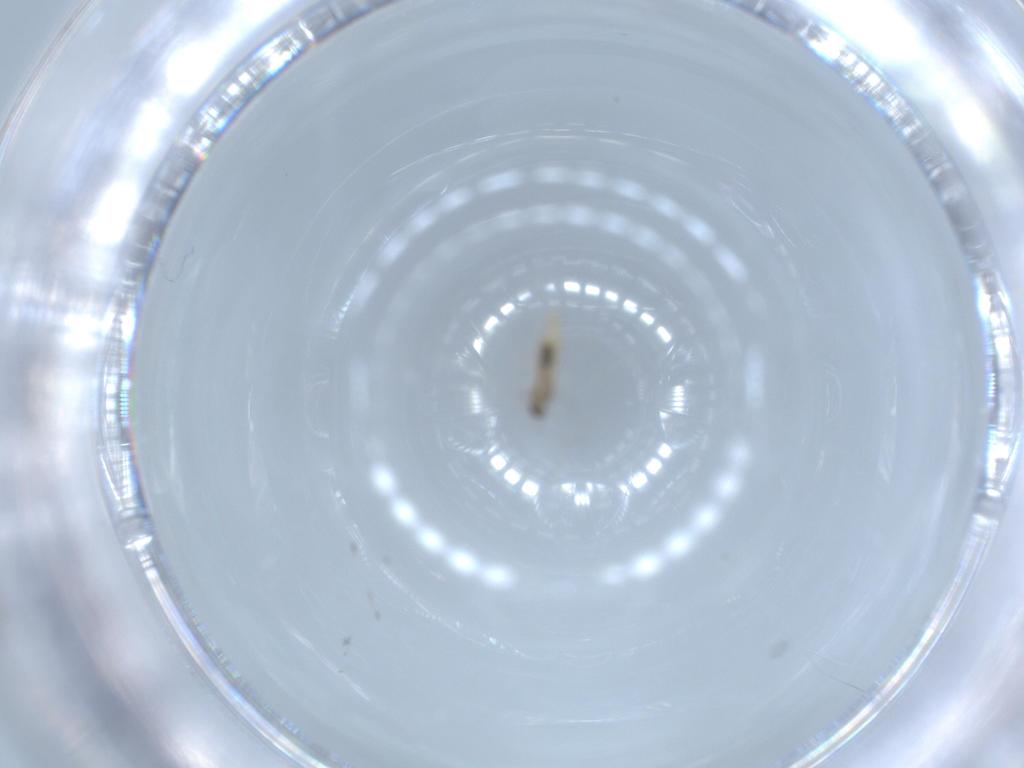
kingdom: Animalia
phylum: Arthropoda
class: Insecta
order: Diptera
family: Cecidomyiidae
